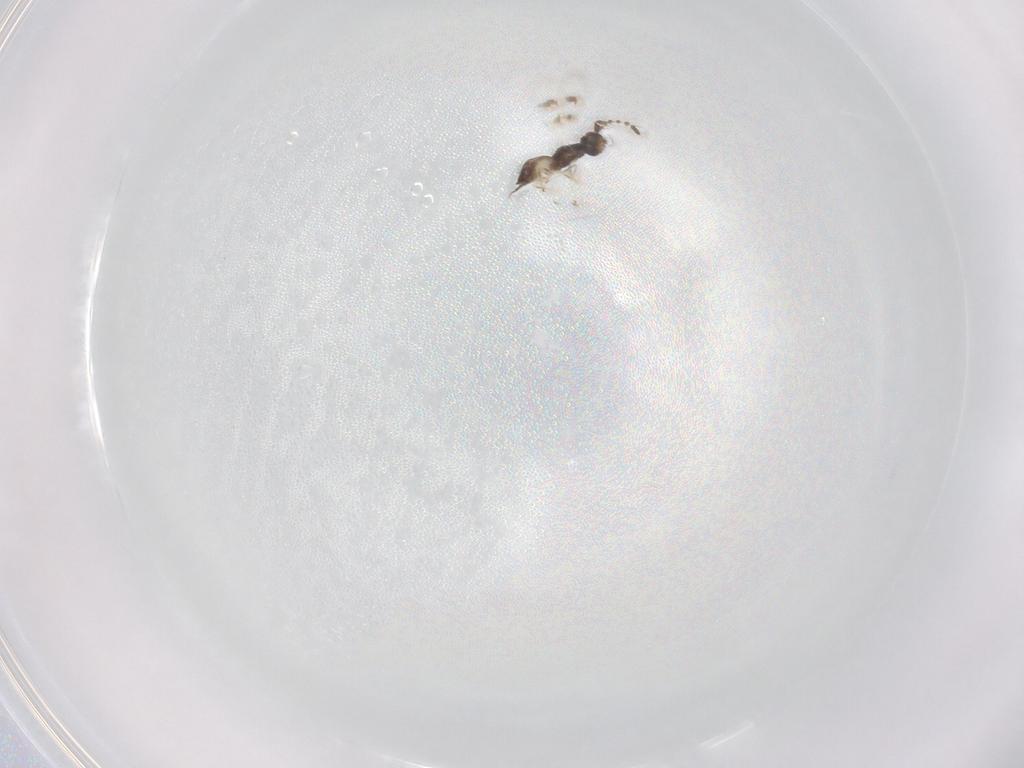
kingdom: Animalia
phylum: Arthropoda
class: Insecta
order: Hymenoptera
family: Eulophidae
